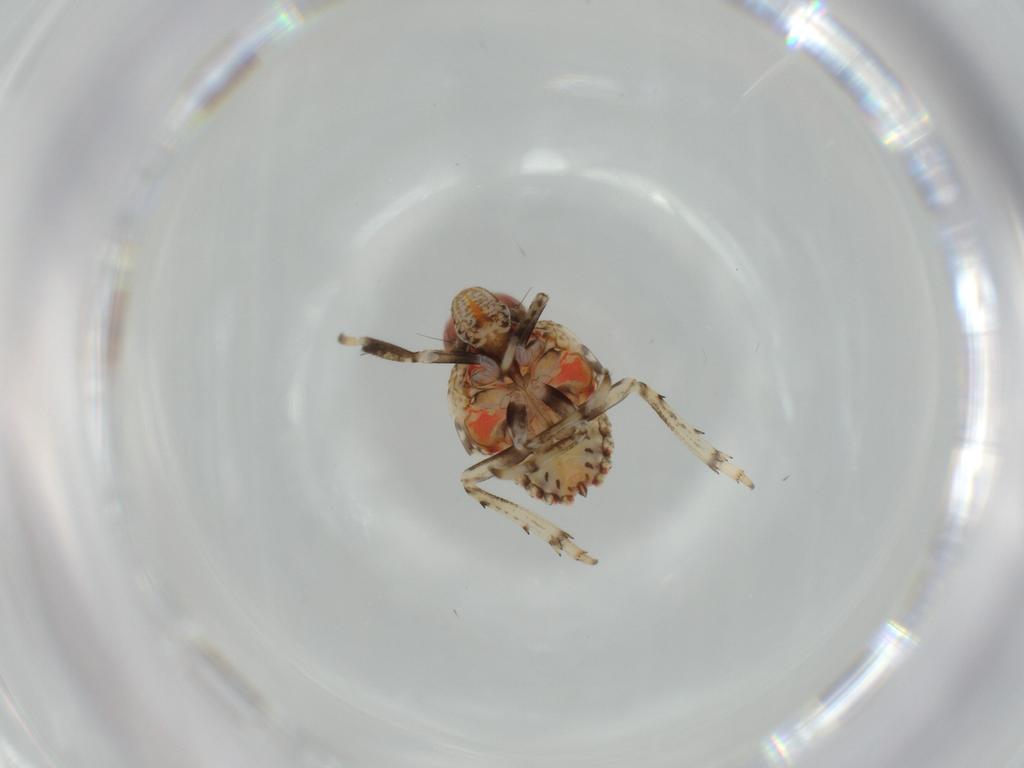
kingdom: Animalia
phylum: Arthropoda
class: Insecta
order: Hemiptera
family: Issidae
